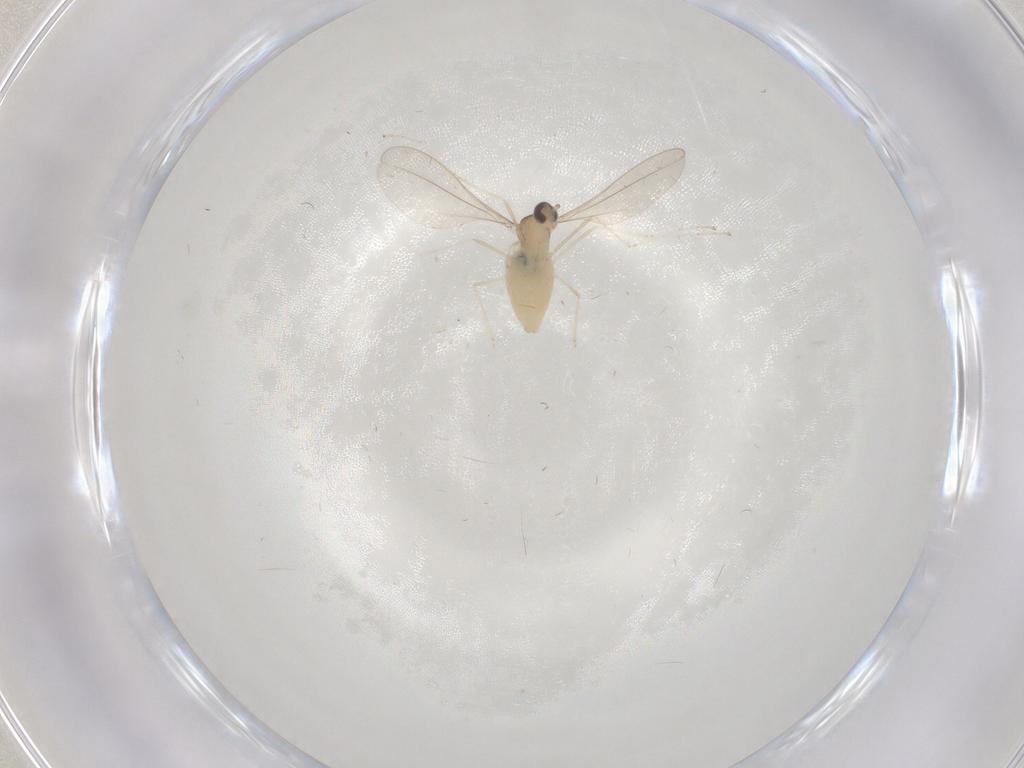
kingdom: Animalia
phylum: Arthropoda
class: Insecta
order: Diptera
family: Cecidomyiidae
